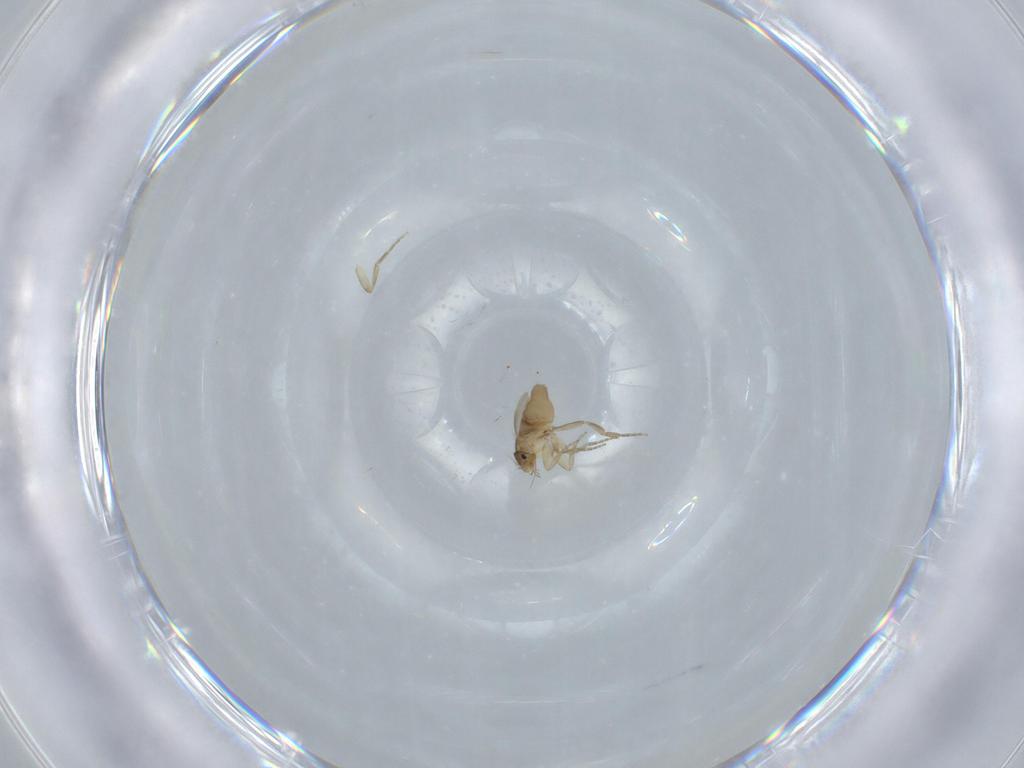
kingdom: Animalia
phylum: Arthropoda
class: Insecta
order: Diptera
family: Phoridae
